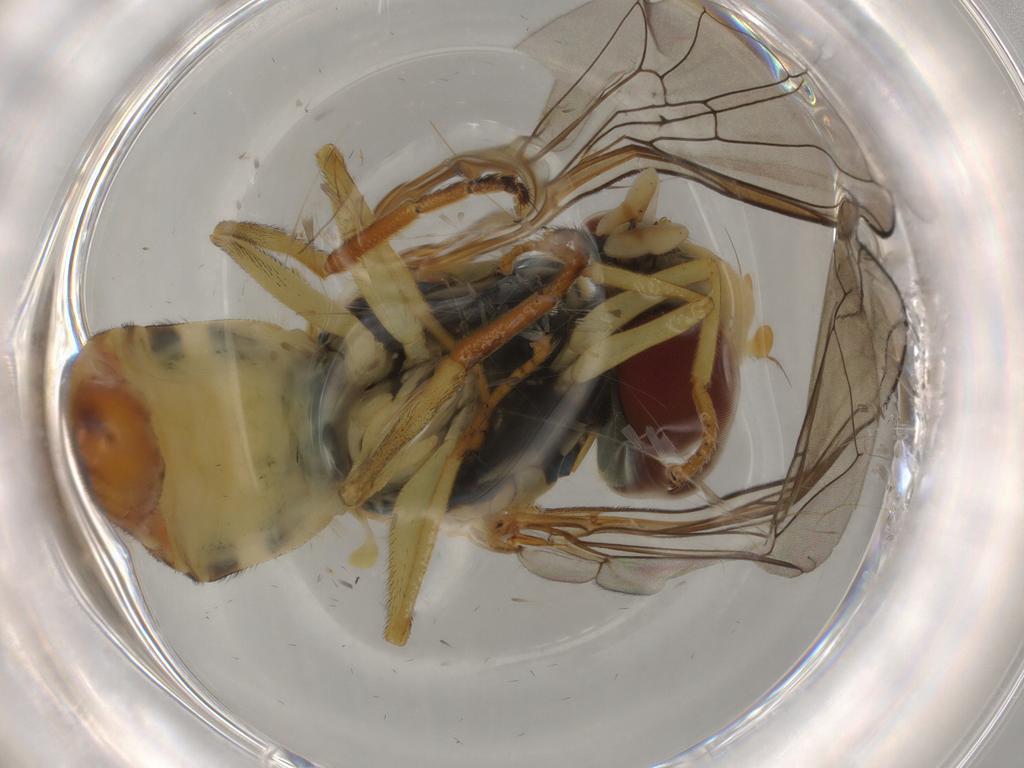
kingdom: Animalia
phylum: Arthropoda
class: Insecta
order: Diptera
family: Syrphidae
